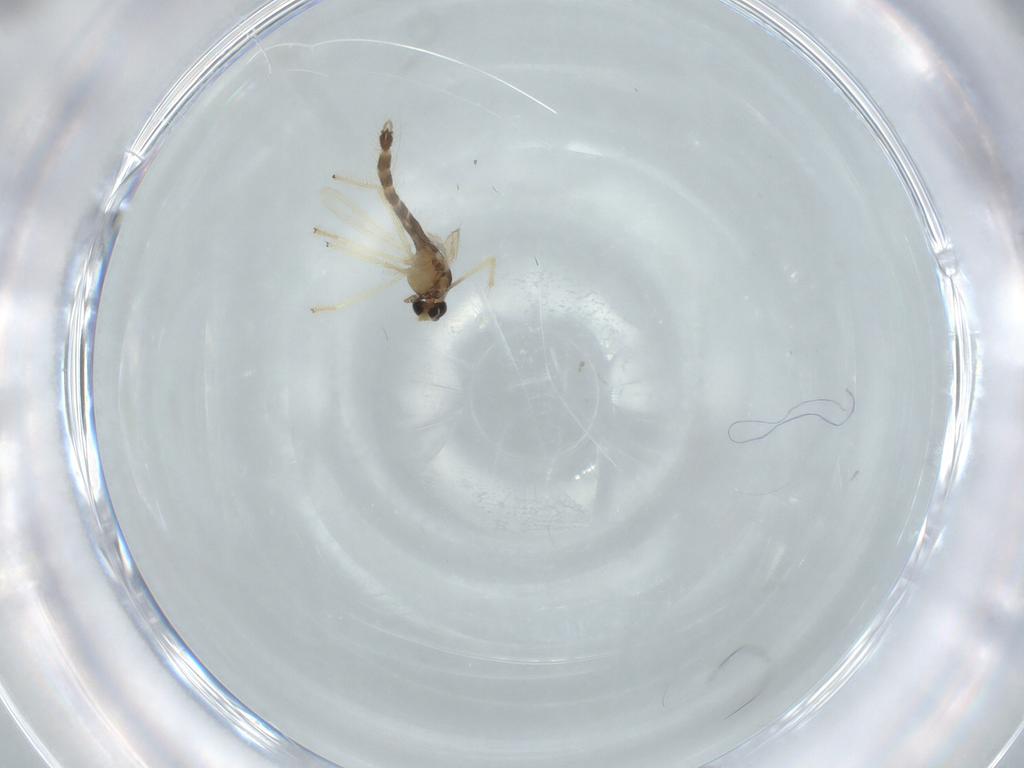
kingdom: Animalia
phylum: Arthropoda
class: Insecta
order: Diptera
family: Chironomidae
